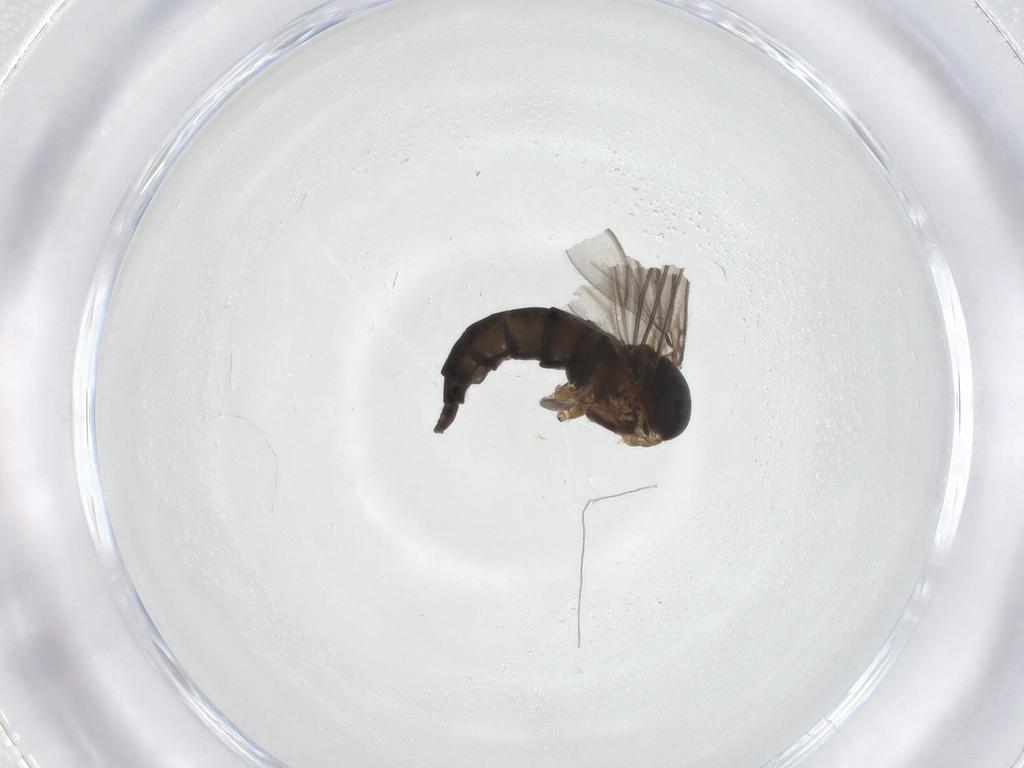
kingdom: Animalia
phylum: Arthropoda
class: Insecta
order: Diptera
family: Sciaridae
